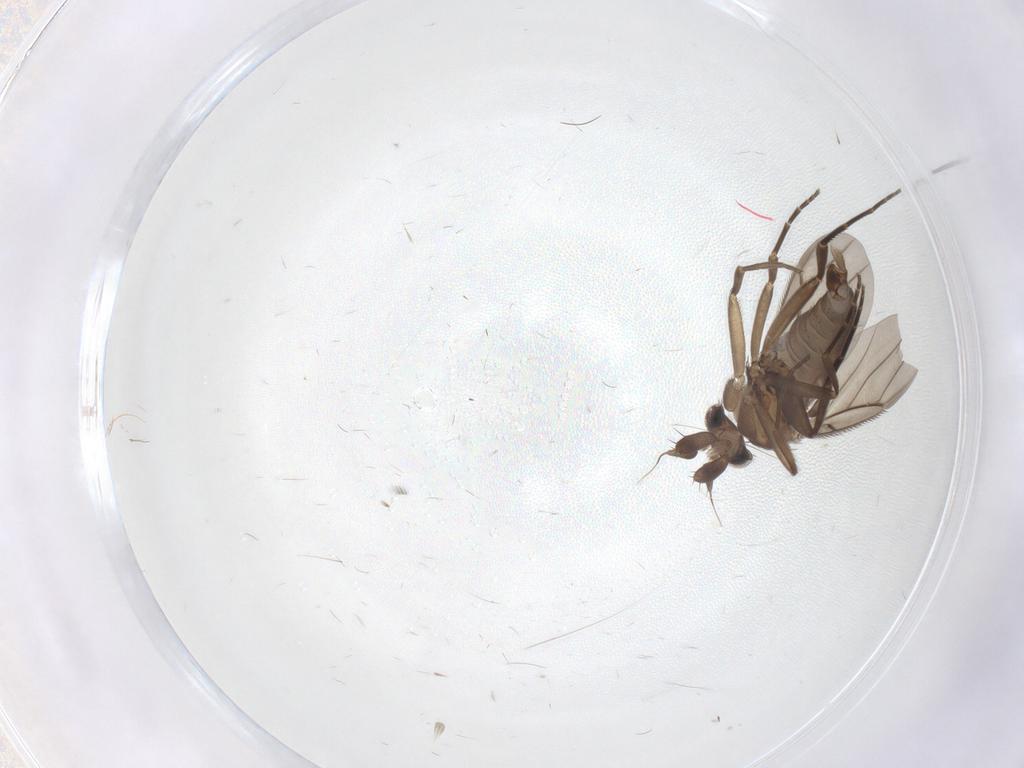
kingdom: Animalia
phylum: Arthropoda
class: Insecta
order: Diptera
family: Phoridae
